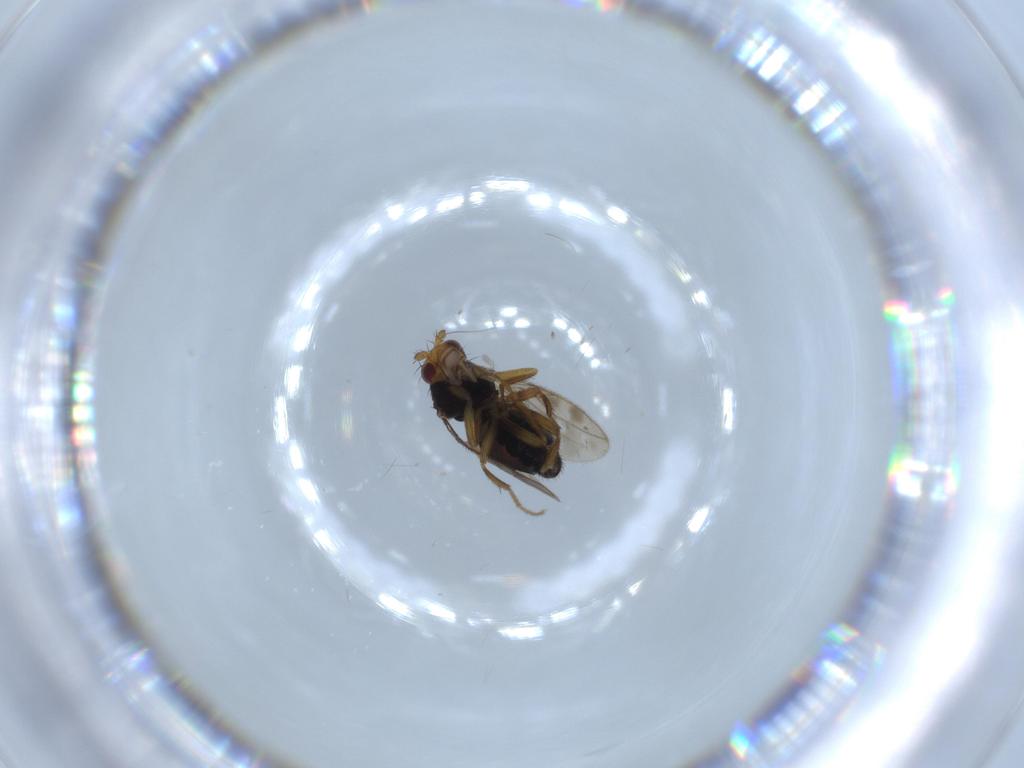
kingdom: Animalia
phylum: Arthropoda
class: Insecta
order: Diptera
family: Sphaeroceridae
